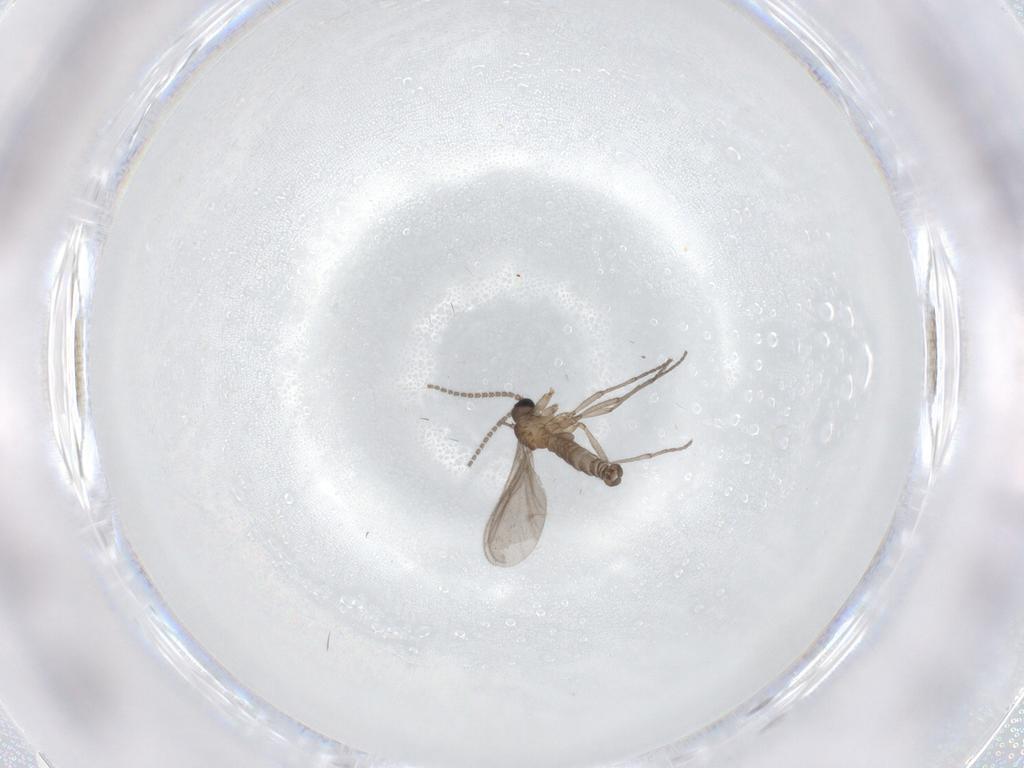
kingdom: Animalia
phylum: Arthropoda
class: Insecta
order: Diptera
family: Sciaridae
